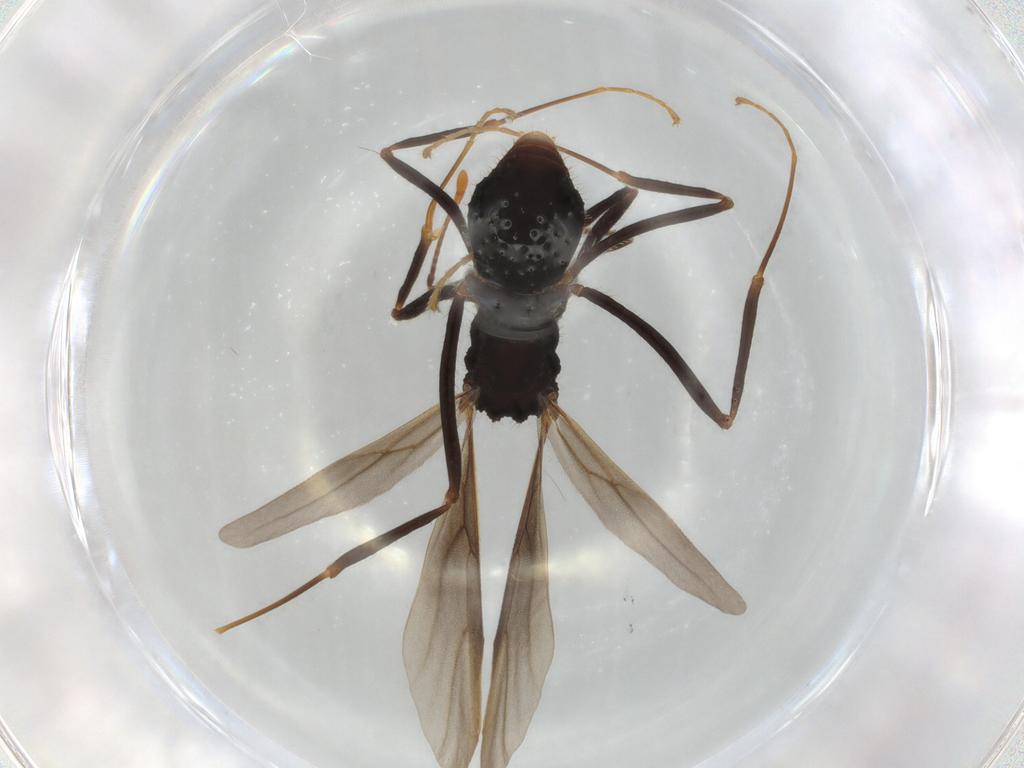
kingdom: Animalia
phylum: Arthropoda
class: Insecta
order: Hymenoptera
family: Formicidae
